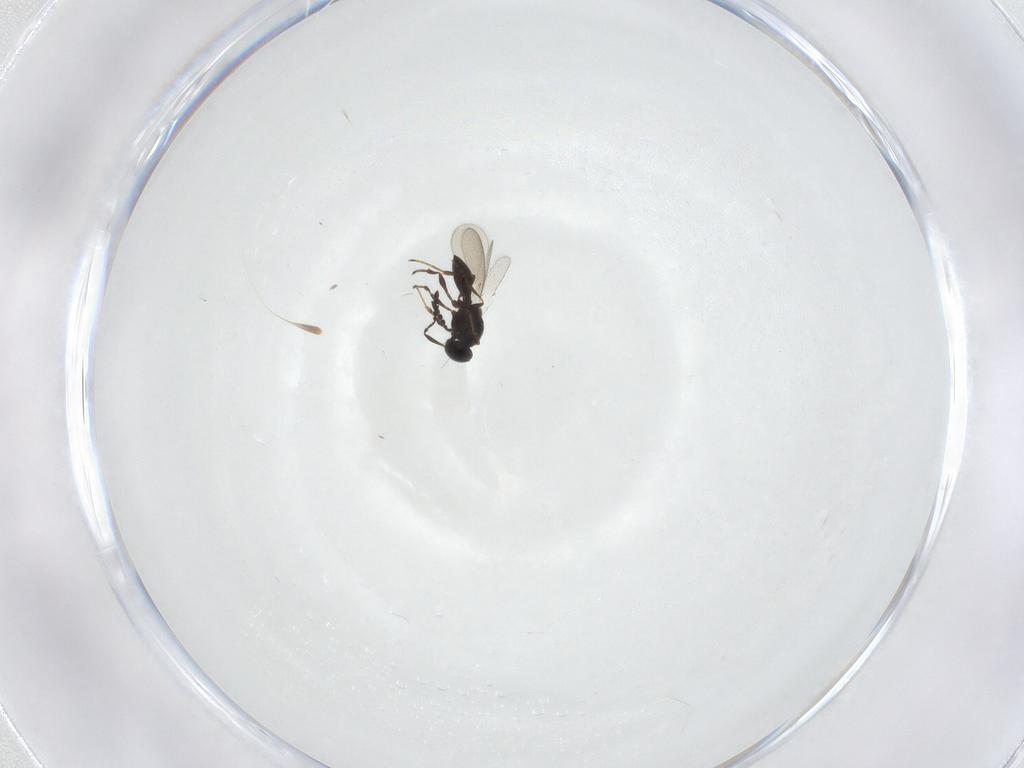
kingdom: Animalia
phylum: Arthropoda
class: Insecta
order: Hymenoptera
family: Platygastridae
